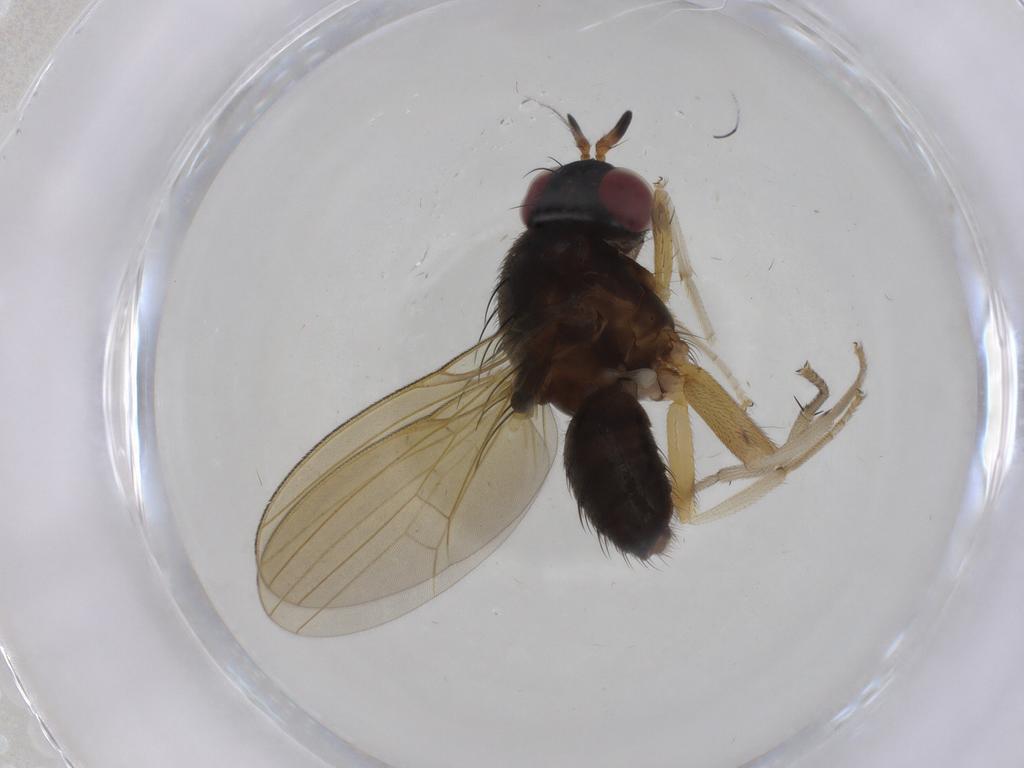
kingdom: Animalia
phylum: Arthropoda
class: Insecta
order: Diptera
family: Lauxaniidae
